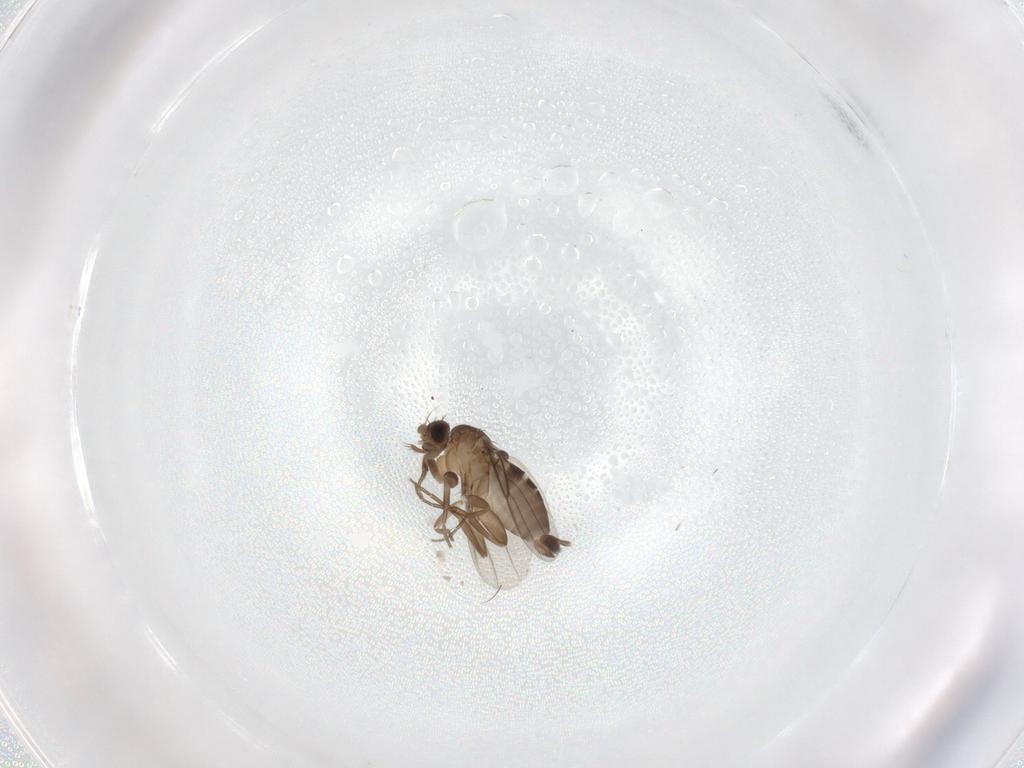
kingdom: Animalia
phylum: Arthropoda
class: Insecta
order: Diptera
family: Phoridae
